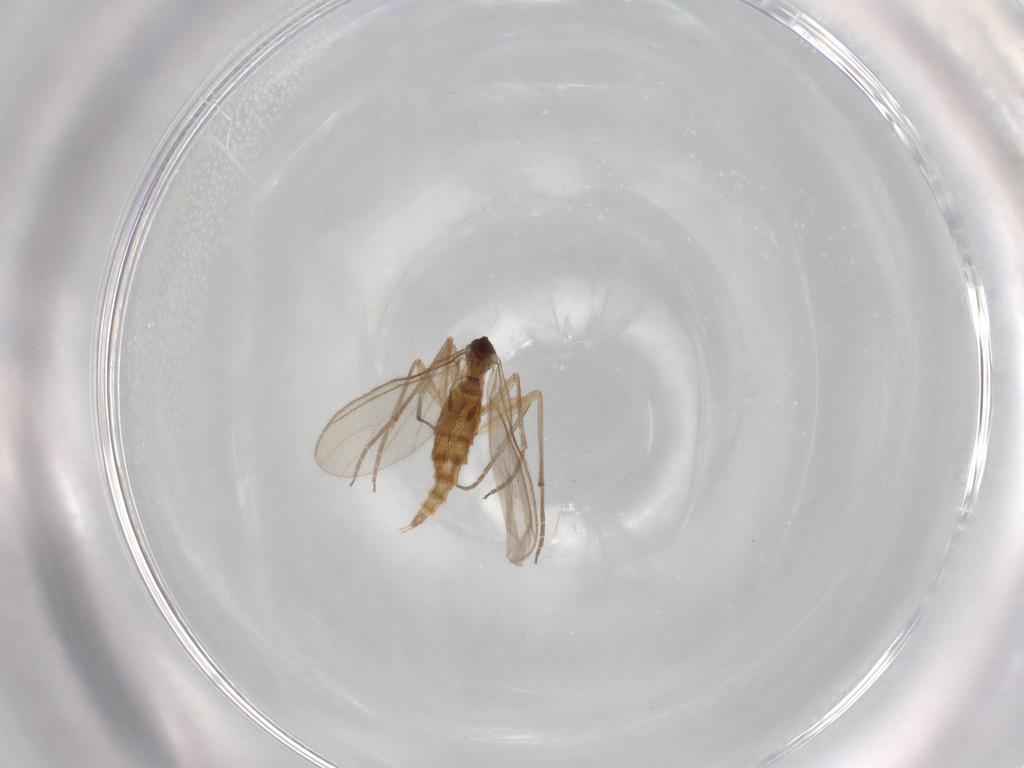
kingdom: Animalia
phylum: Arthropoda
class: Insecta
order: Diptera
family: Sciaridae
